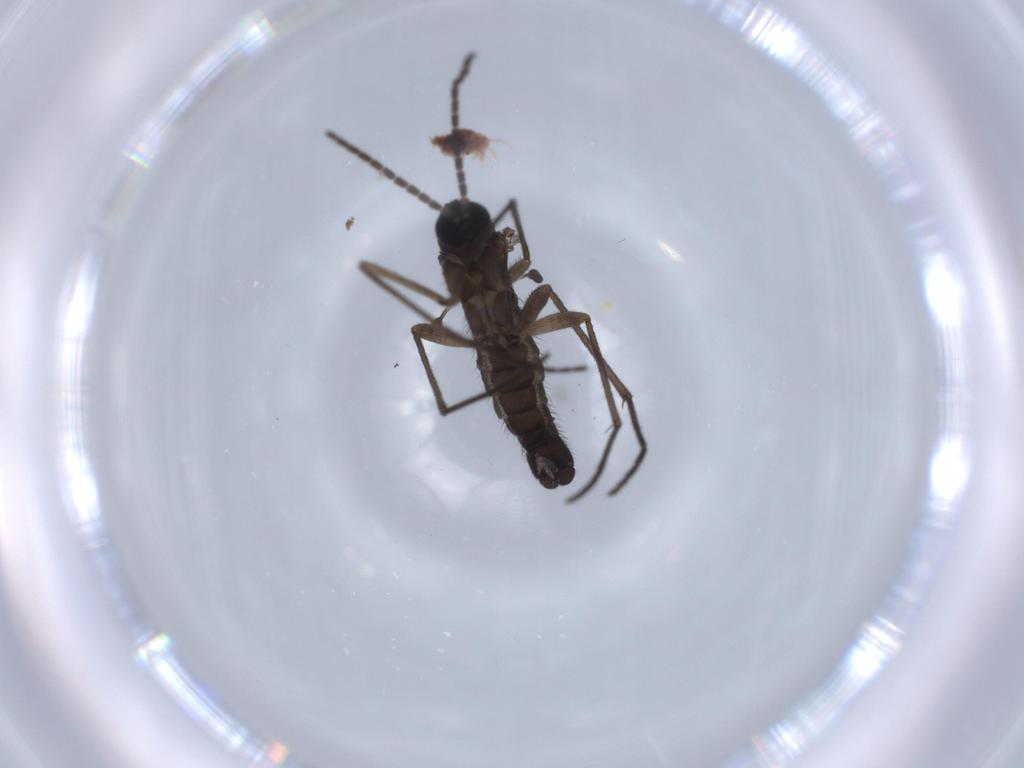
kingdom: Animalia
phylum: Arthropoda
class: Insecta
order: Diptera
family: Sciaridae
